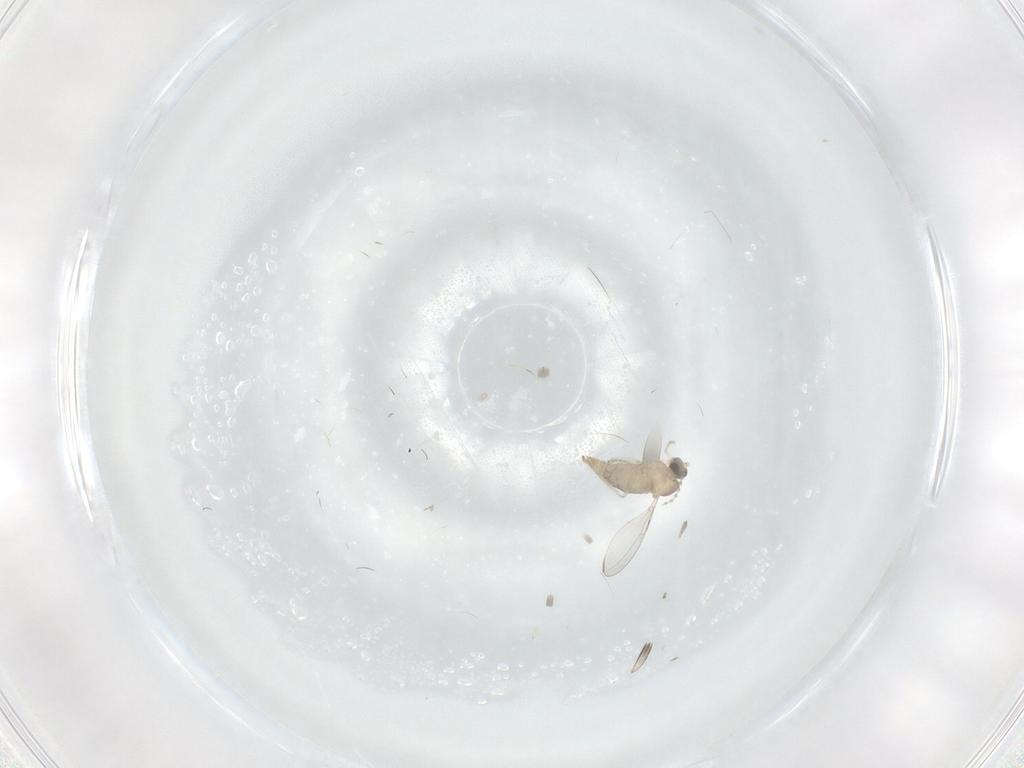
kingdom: Animalia
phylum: Arthropoda
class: Insecta
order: Diptera
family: Cecidomyiidae
